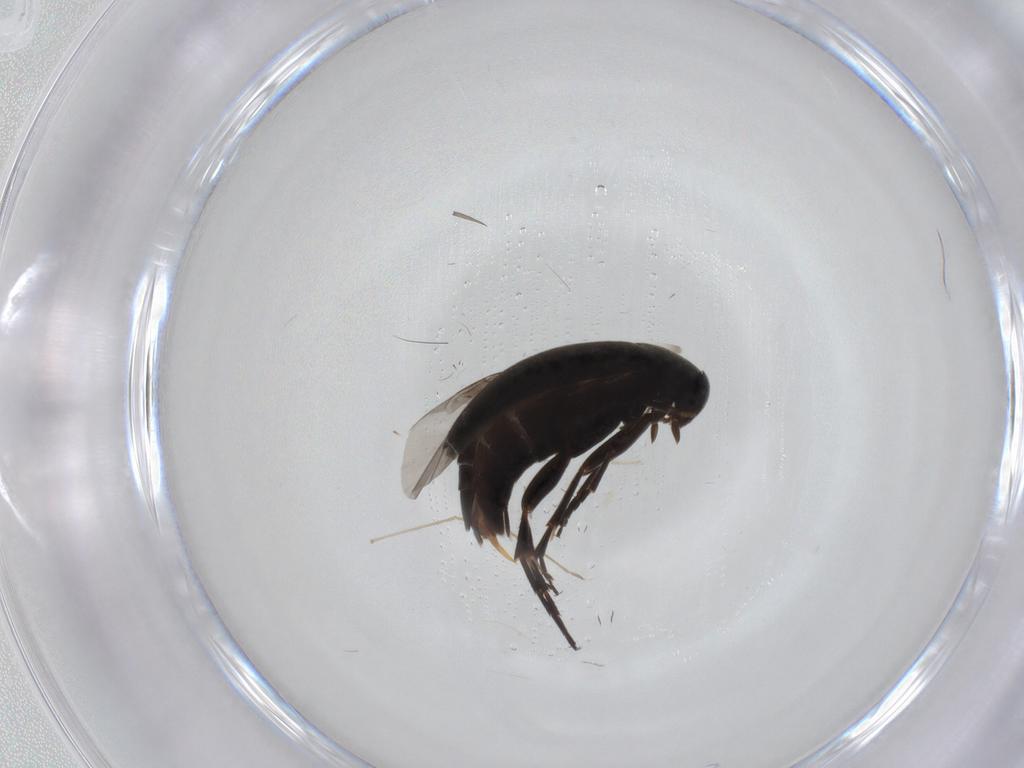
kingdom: Animalia
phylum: Arthropoda
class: Insecta
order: Coleoptera
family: Scraptiidae
